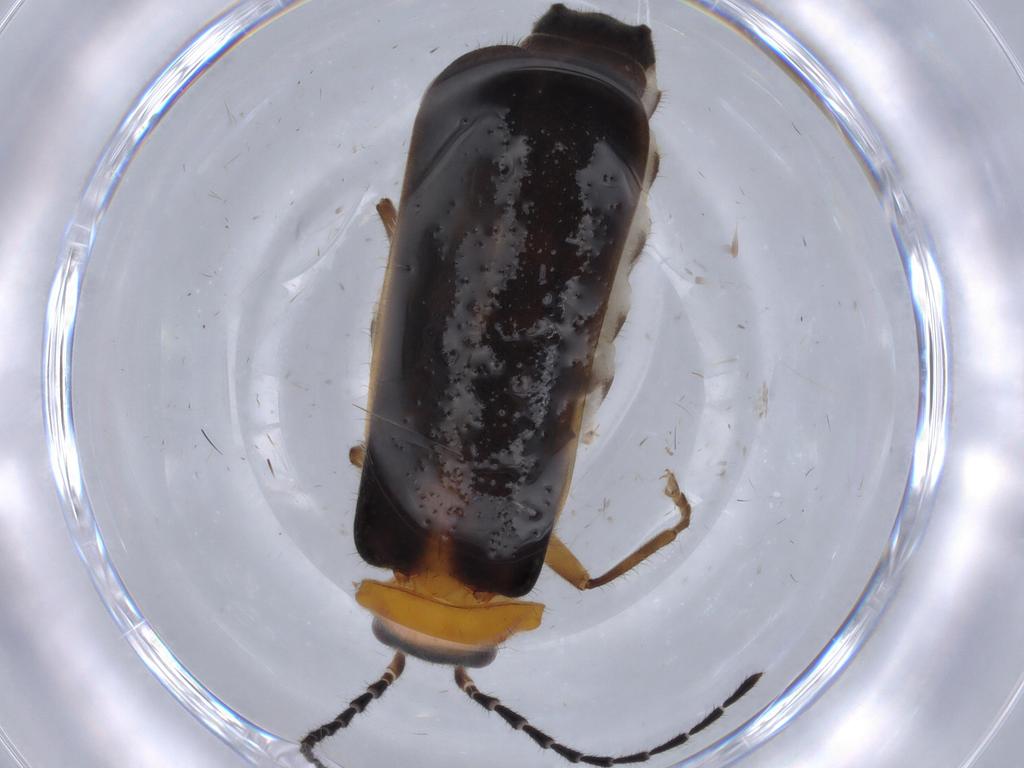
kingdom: Animalia
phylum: Arthropoda
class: Insecta
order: Coleoptera
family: Cantharidae
